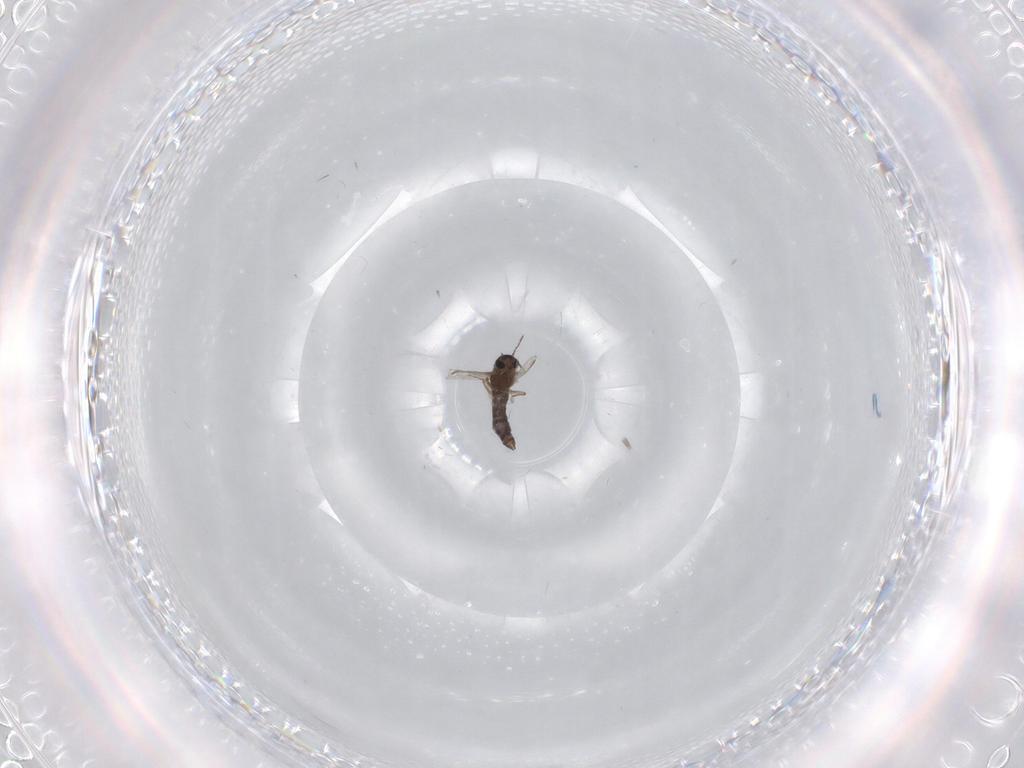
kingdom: Animalia
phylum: Arthropoda
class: Insecta
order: Diptera
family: Chironomidae
